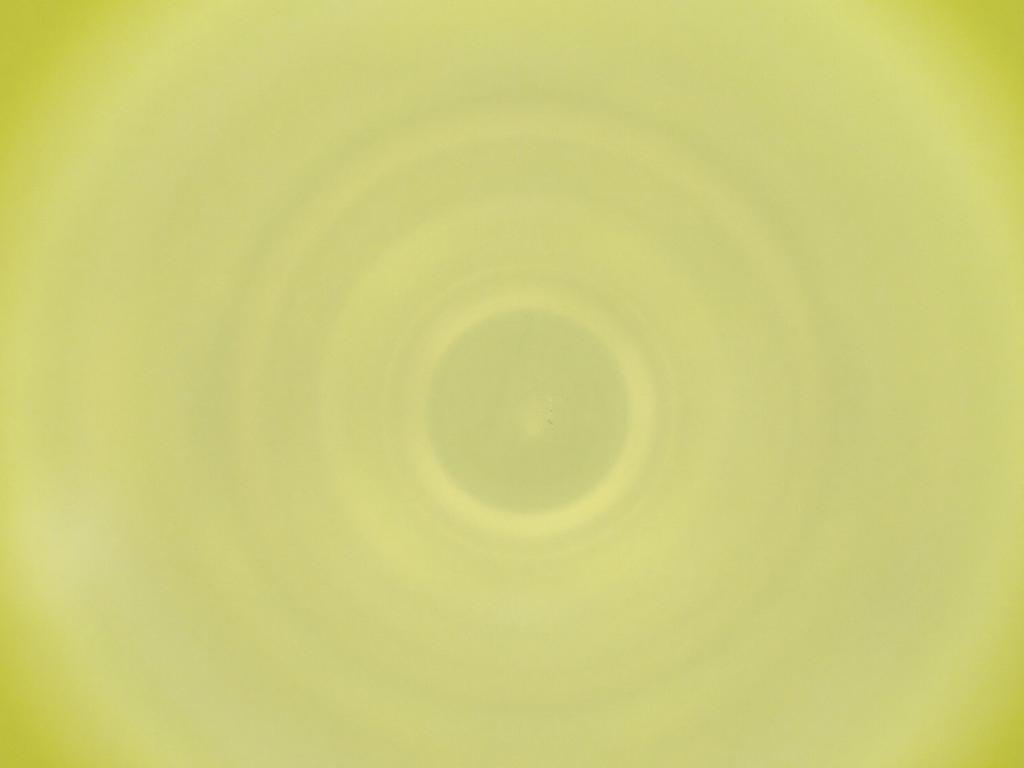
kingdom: Animalia
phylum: Arthropoda
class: Insecta
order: Diptera
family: Cecidomyiidae
